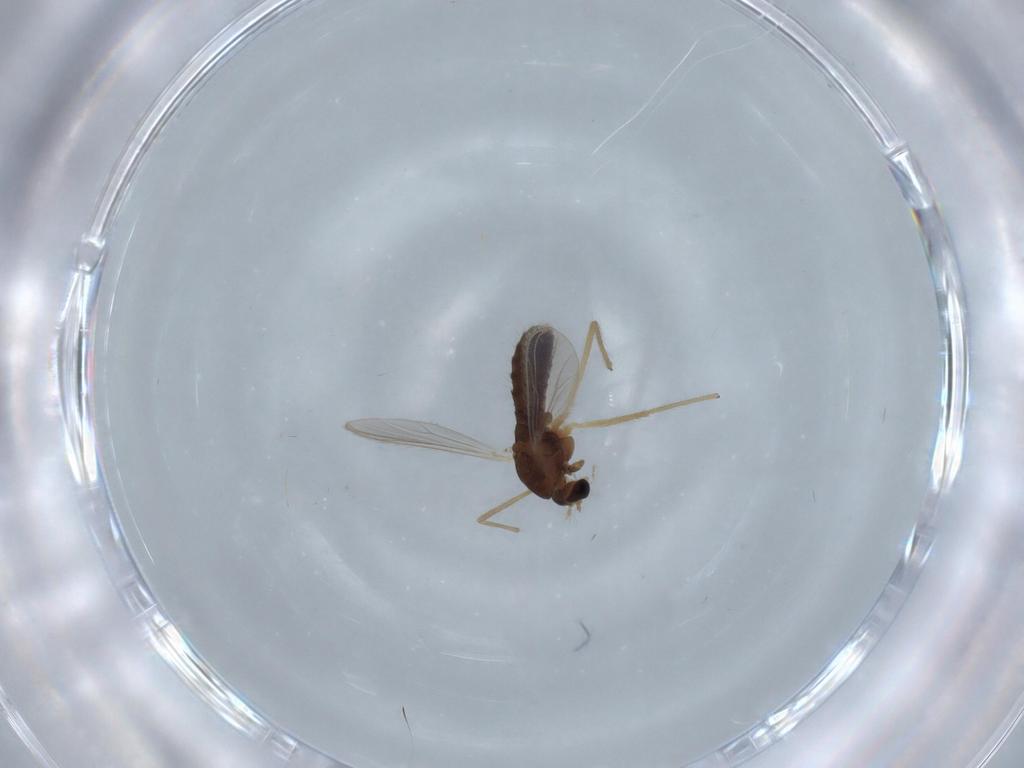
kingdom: Animalia
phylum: Arthropoda
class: Insecta
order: Diptera
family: Chironomidae
